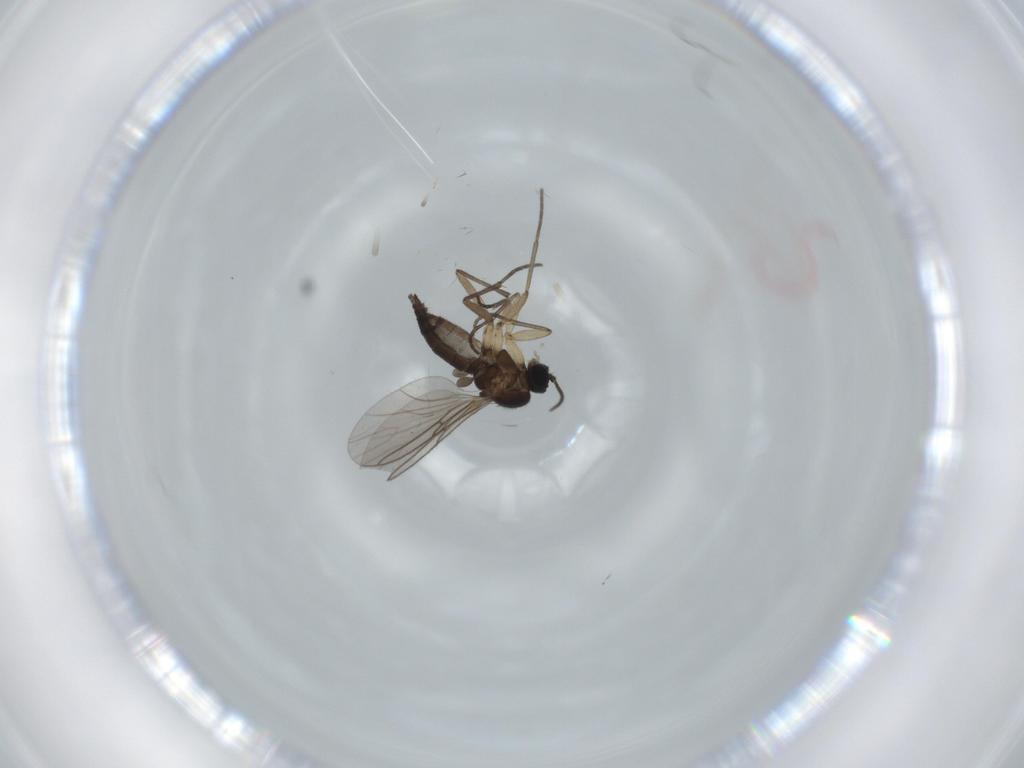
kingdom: Animalia
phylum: Arthropoda
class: Insecta
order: Diptera
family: Sciaridae
